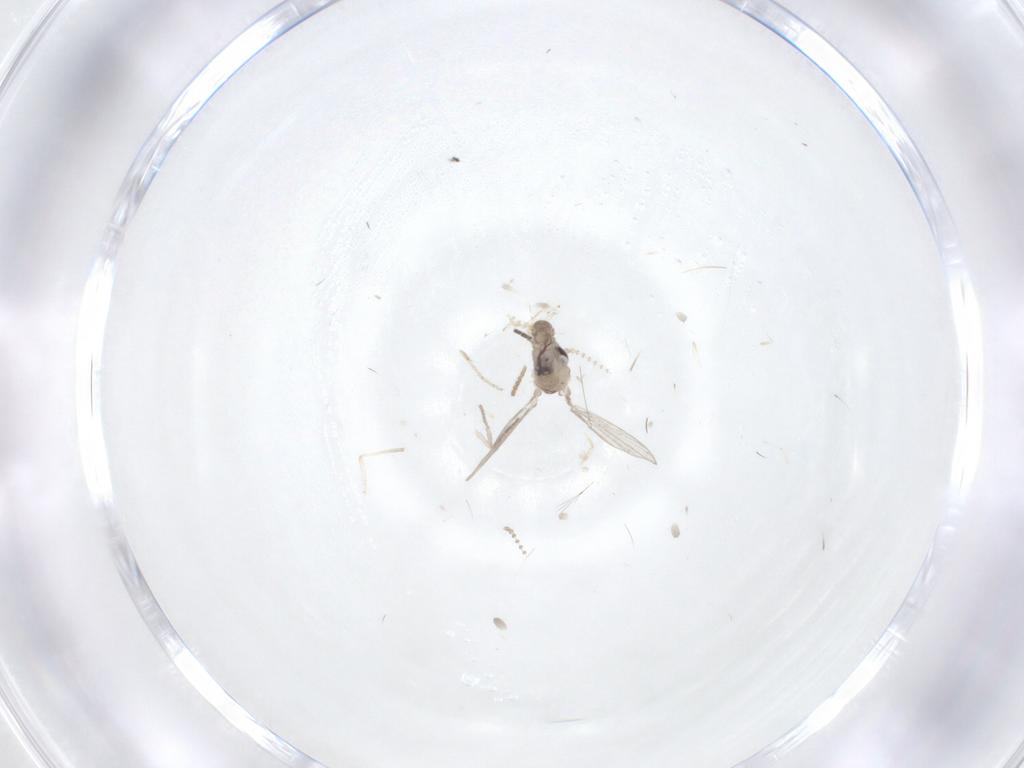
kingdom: Animalia
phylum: Arthropoda
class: Insecta
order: Diptera
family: Psychodidae
